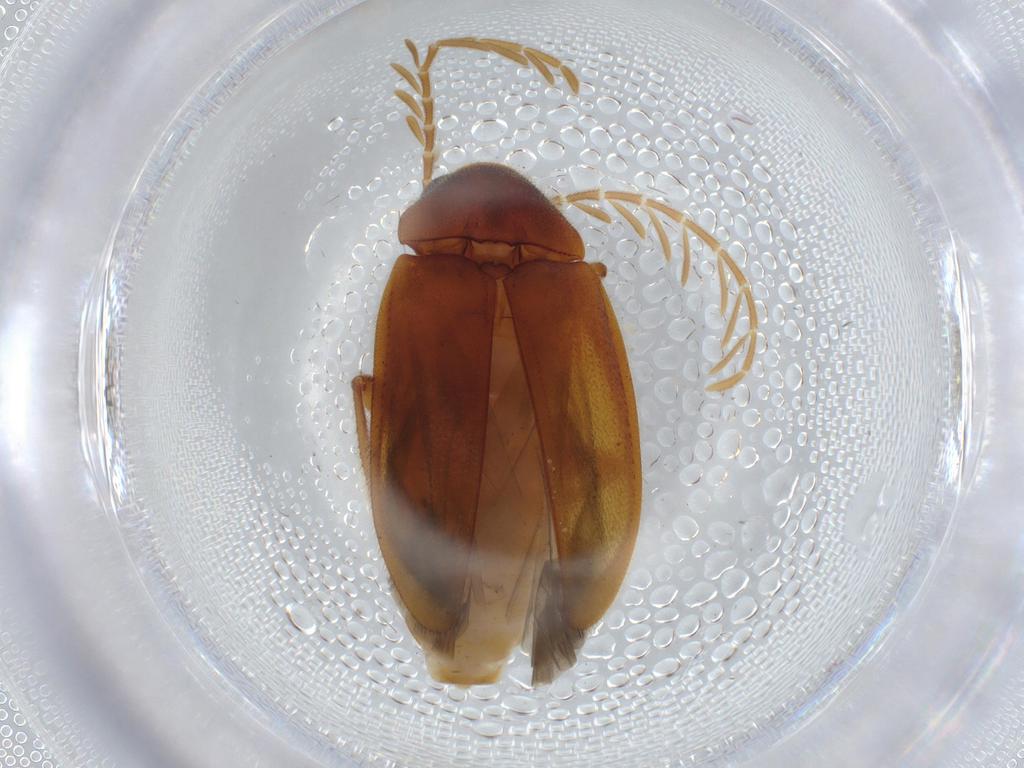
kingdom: Animalia
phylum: Arthropoda
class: Insecta
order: Coleoptera
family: Ptilodactylidae
